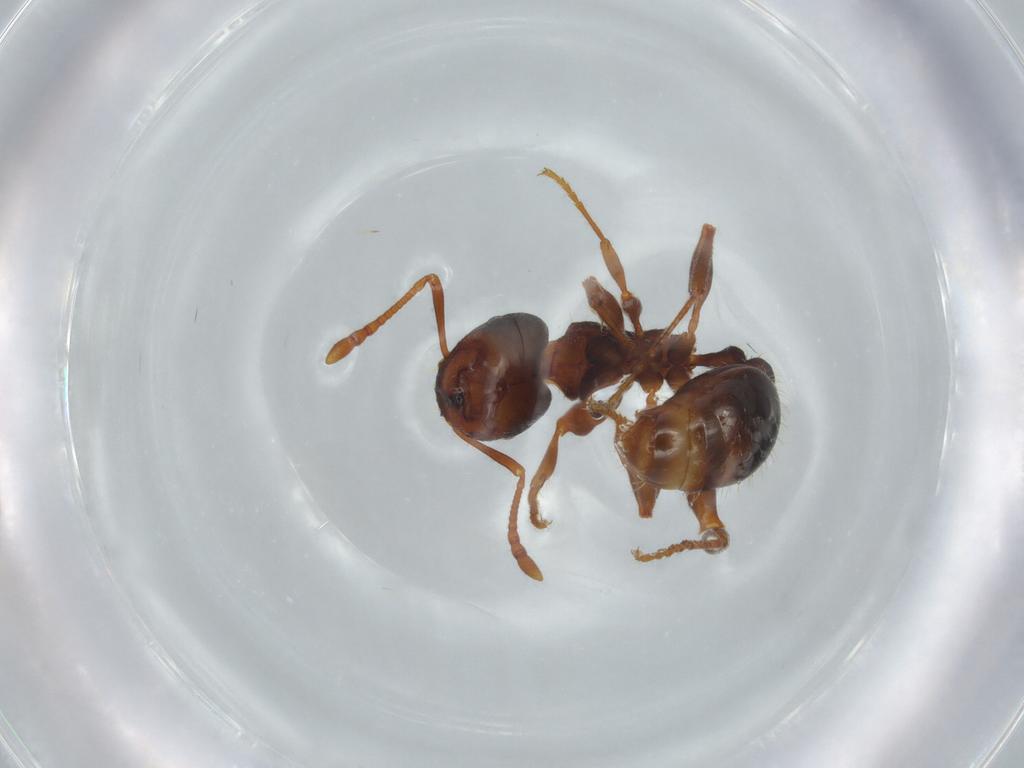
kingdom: Animalia
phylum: Arthropoda
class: Insecta
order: Hymenoptera
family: Formicidae
